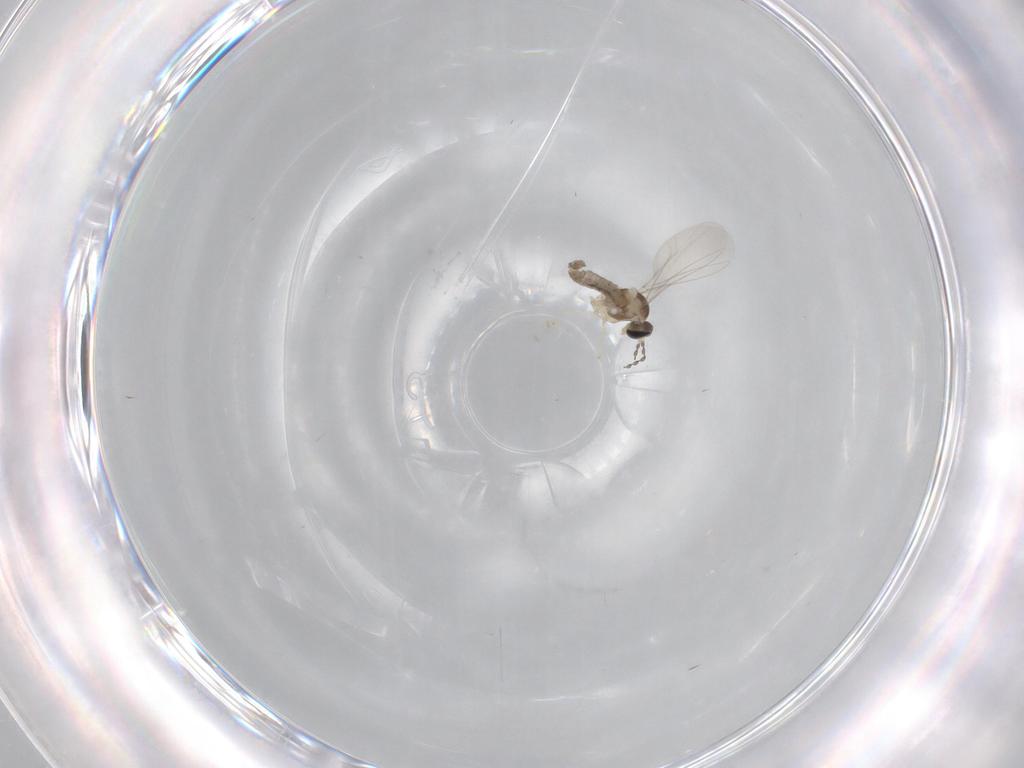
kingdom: Animalia
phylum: Arthropoda
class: Insecta
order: Diptera
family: Cecidomyiidae
